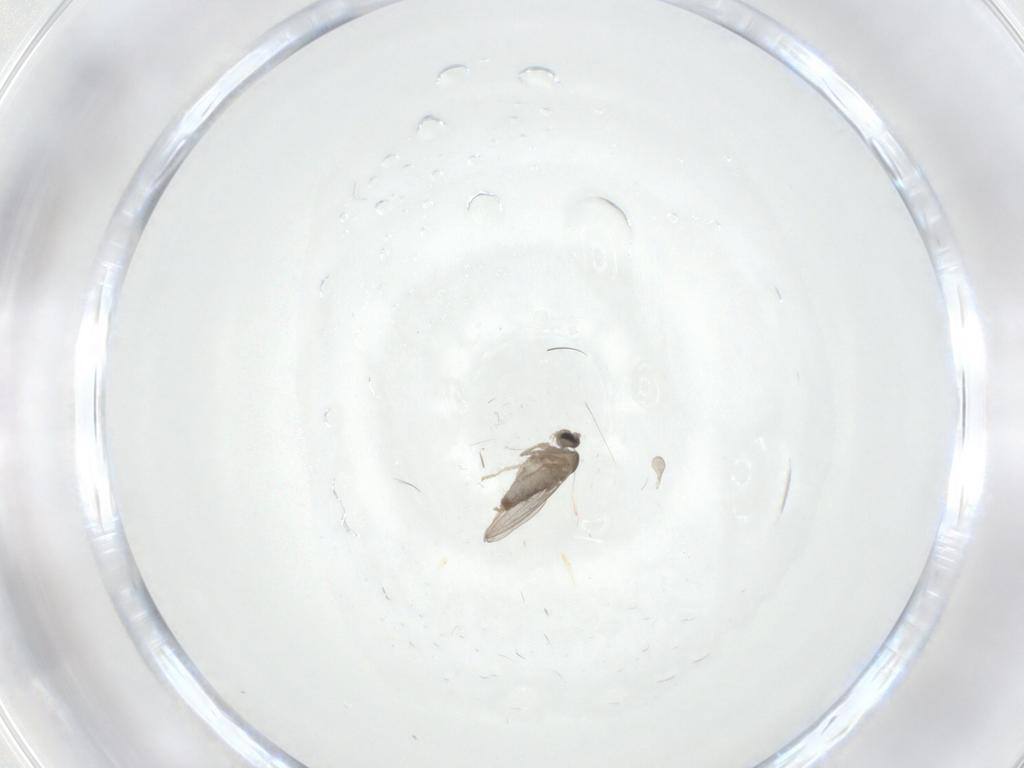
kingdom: Animalia
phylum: Arthropoda
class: Insecta
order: Diptera
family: Cecidomyiidae
